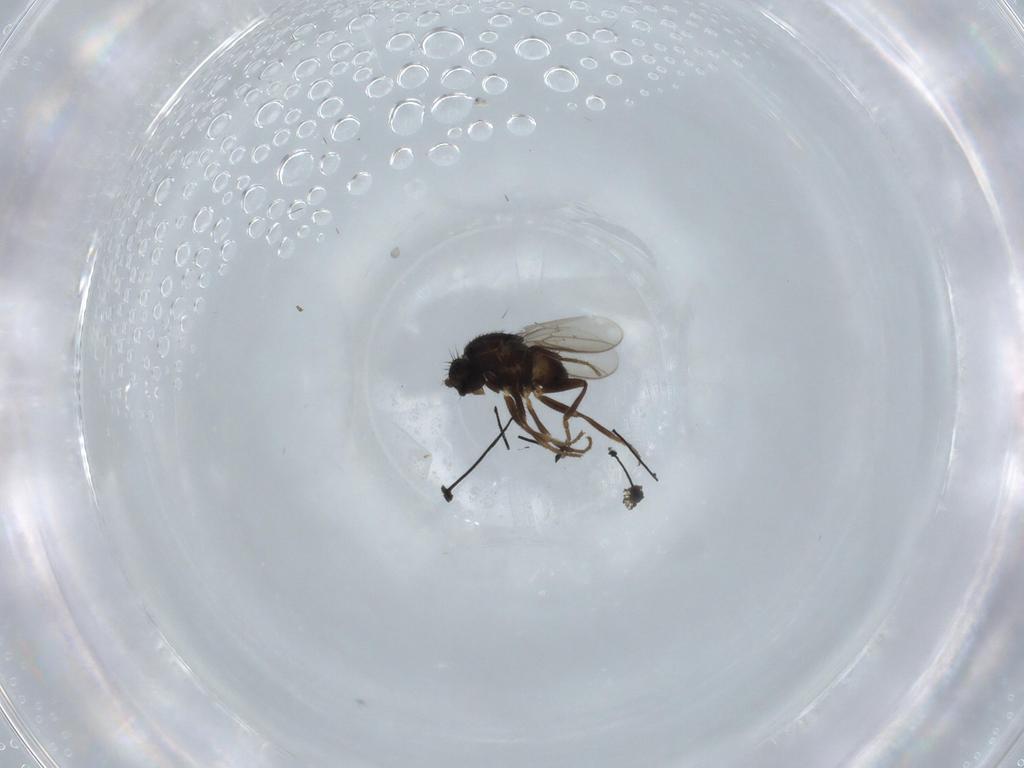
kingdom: Animalia
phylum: Arthropoda
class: Insecta
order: Diptera
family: Sphaeroceridae
